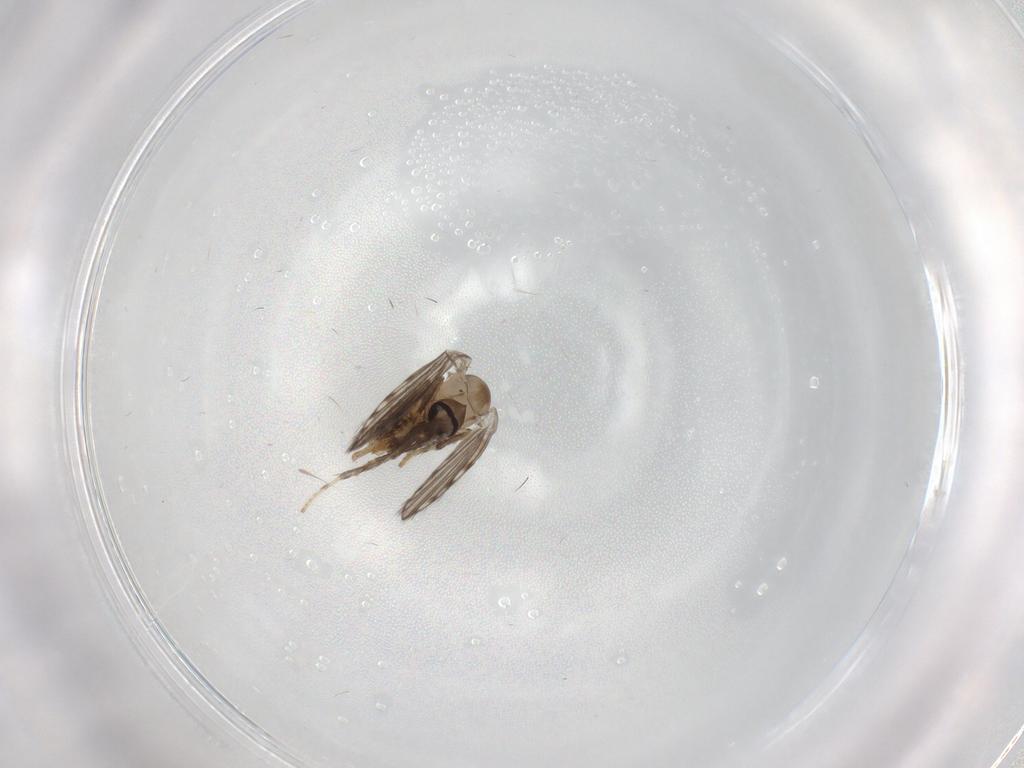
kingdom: Animalia
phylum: Arthropoda
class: Insecta
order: Diptera
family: Psychodidae
